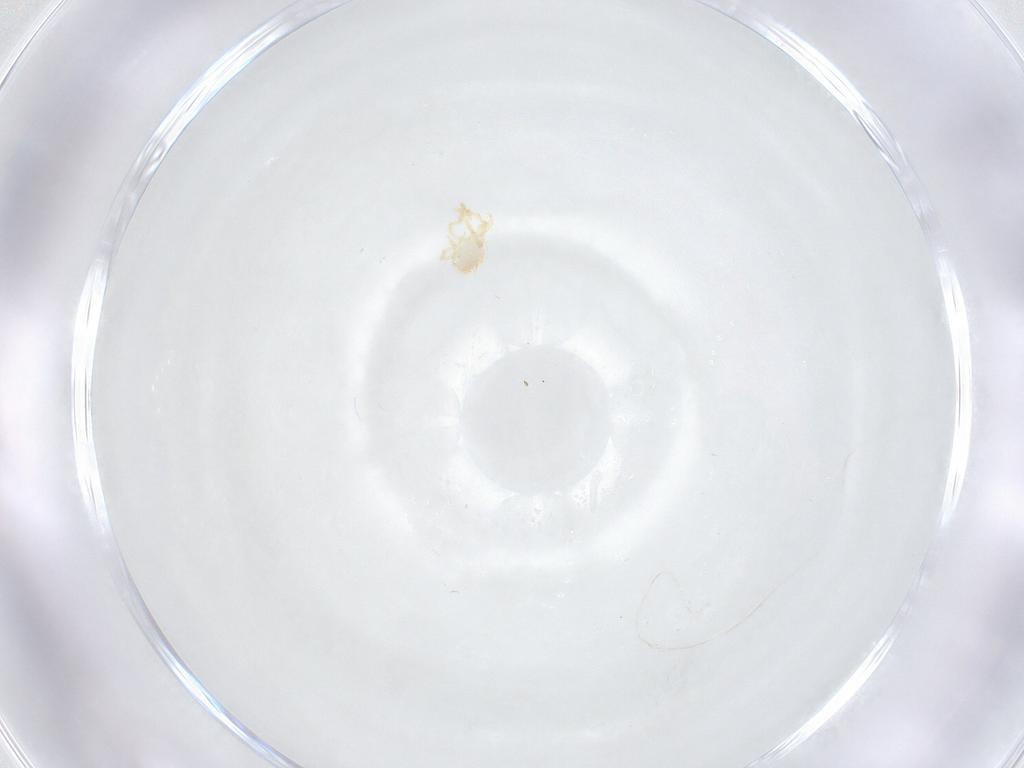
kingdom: Animalia
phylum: Arthropoda
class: Arachnida
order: Trombidiformes
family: Erythraeidae
